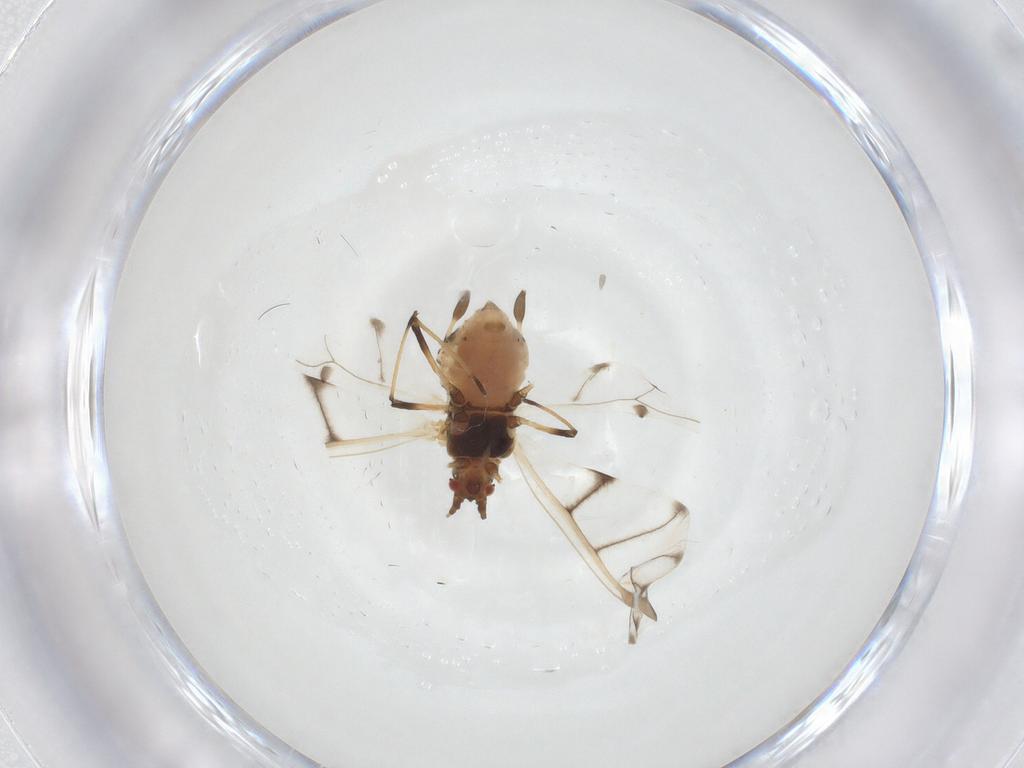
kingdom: Animalia
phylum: Arthropoda
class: Insecta
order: Hemiptera
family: Aphididae
